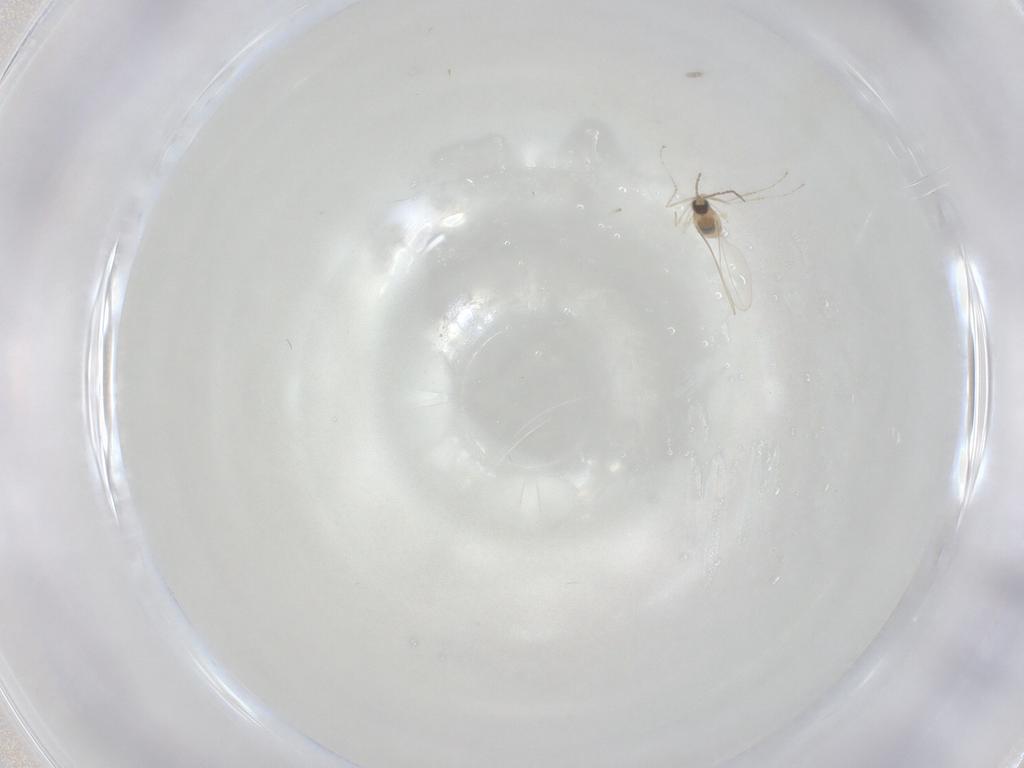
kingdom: Animalia
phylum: Arthropoda
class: Insecta
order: Diptera
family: Cecidomyiidae
